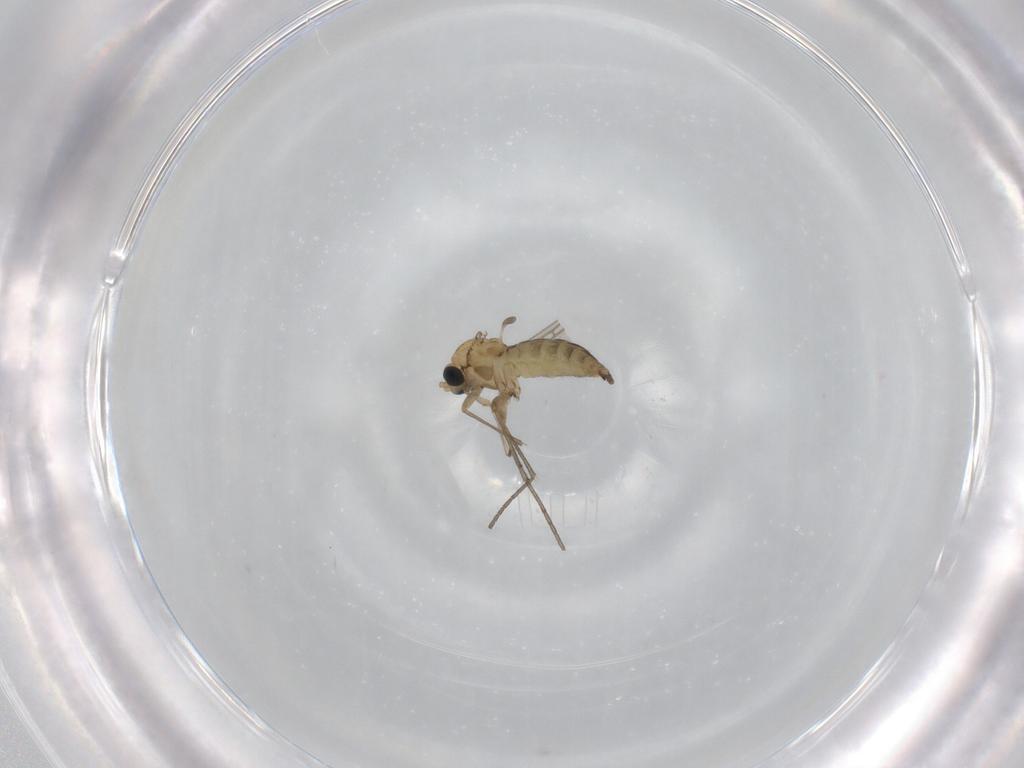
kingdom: Animalia
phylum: Arthropoda
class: Insecta
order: Diptera
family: Sciaridae
